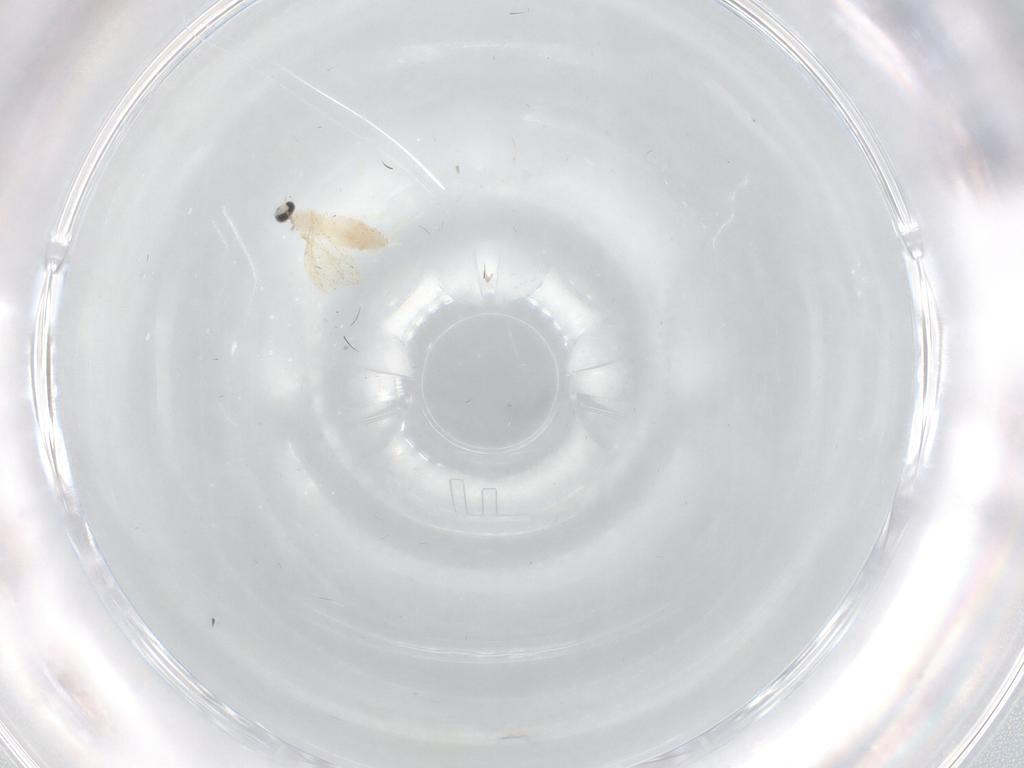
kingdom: Animalia
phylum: Arthropoda
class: Insecta
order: Diptera
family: Cecidomyiidae
